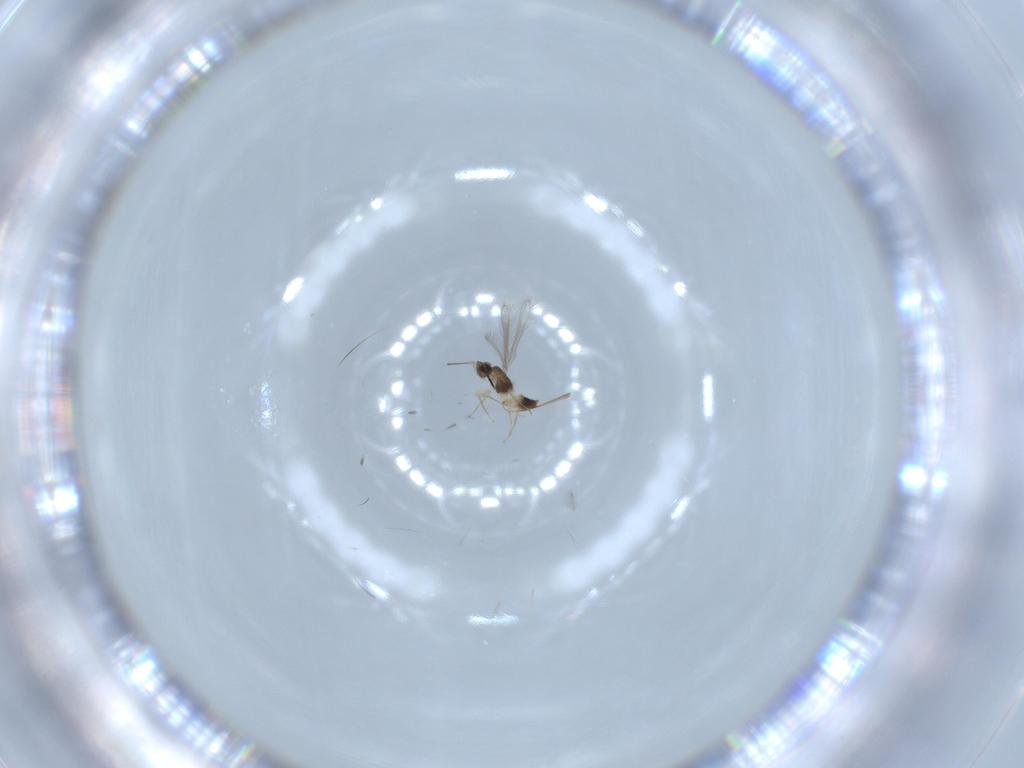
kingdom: Animalia
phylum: Arthropoda
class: Insecta
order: Hymenoptera
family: Mymaridae
